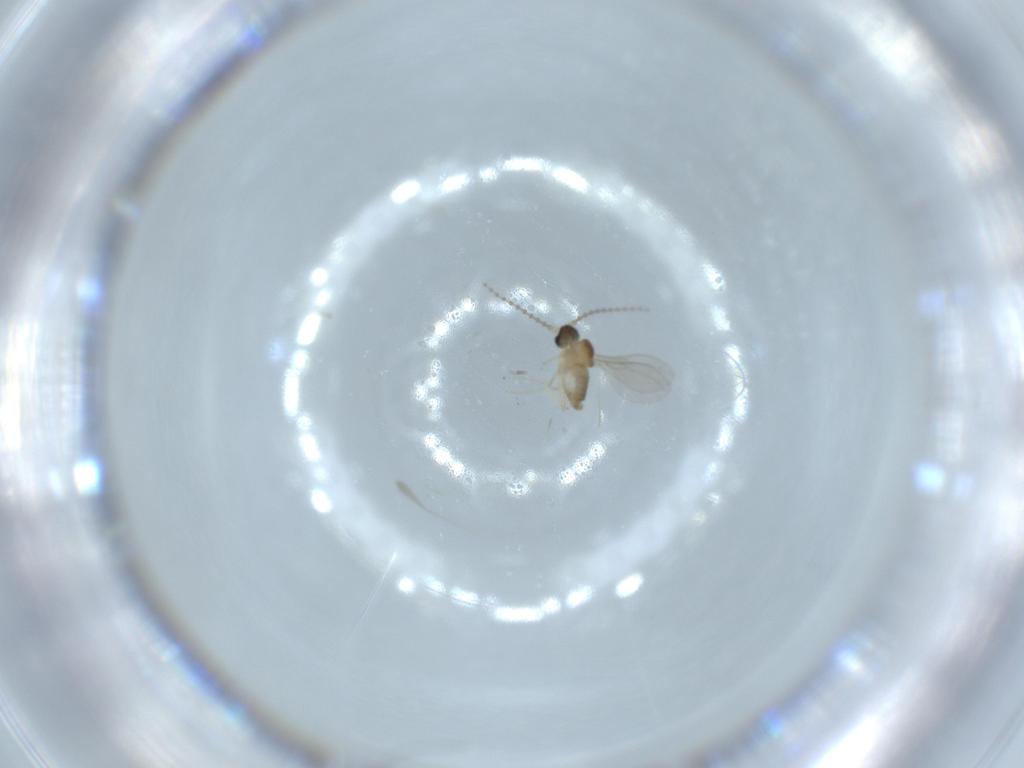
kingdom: Animalia
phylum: Arthropoda
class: Insecta
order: Diptera
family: Cecidomyiidae
